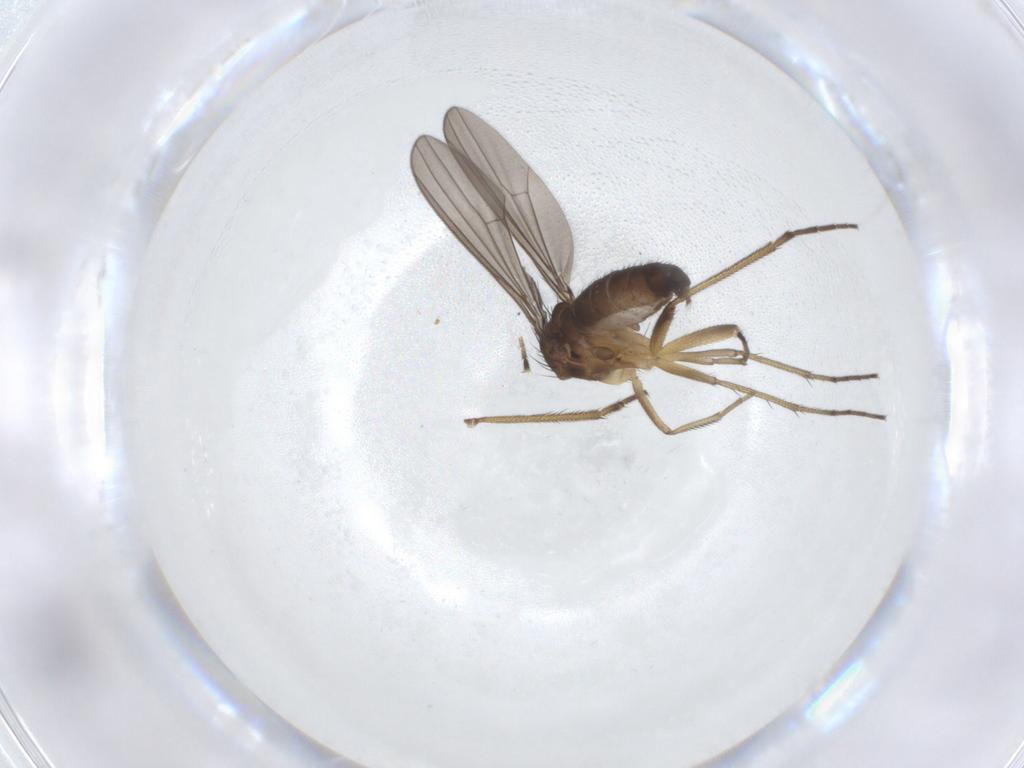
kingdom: Animalia
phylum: Arthropoda
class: Insecta
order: Diptera
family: Dolichopodidae
